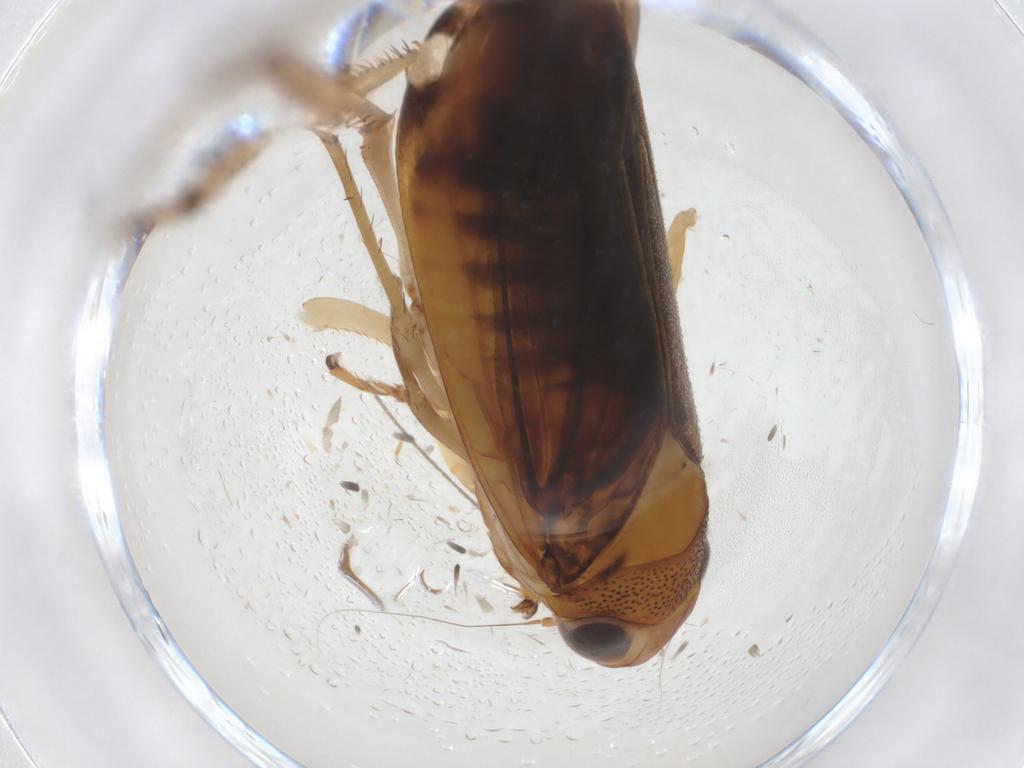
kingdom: Animalia
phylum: Arthropoda
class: Insecta
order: Hemiptera
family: Cicadellidae
